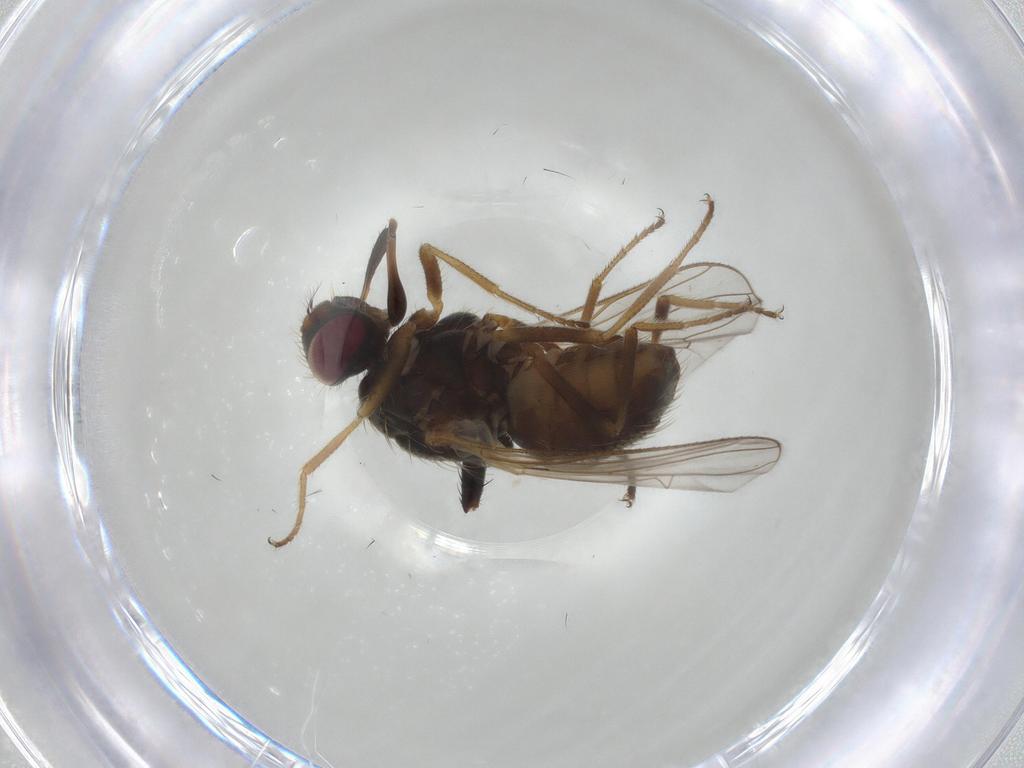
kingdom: Animalia
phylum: Arthropoda
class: Insecta
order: Diptera
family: Muscidae
